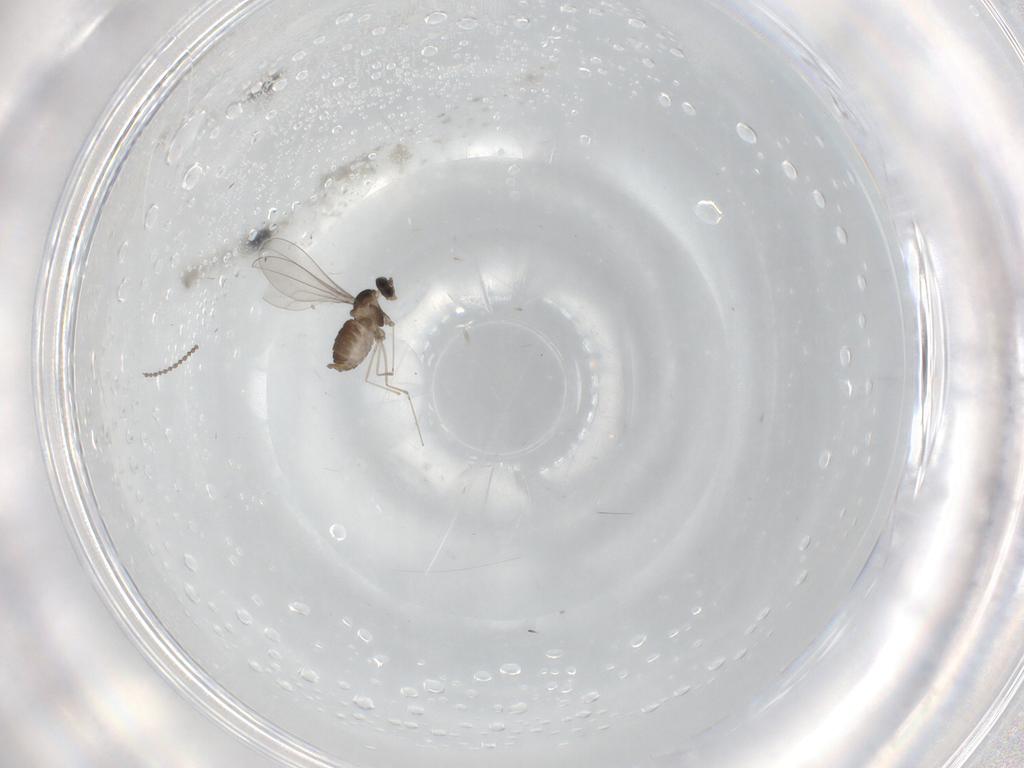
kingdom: Animalia
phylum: Arthropoda
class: Insecta
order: Diptera
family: Cecidomyiidae
